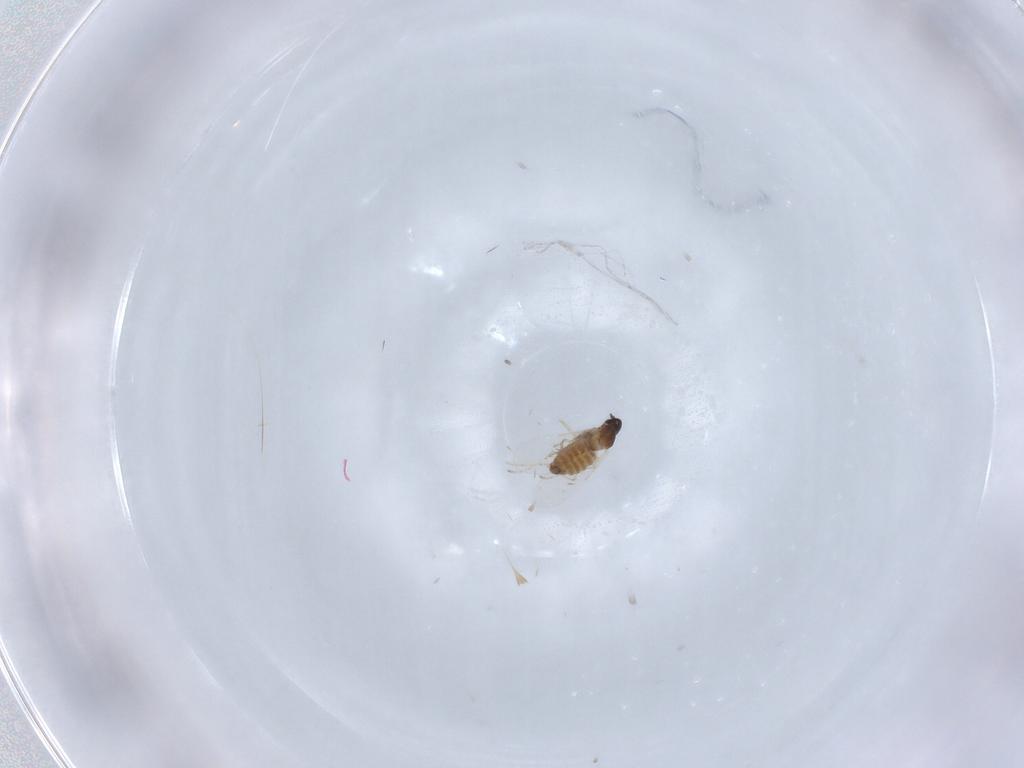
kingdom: Animalia
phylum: Arthropoda
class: Insecta
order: Diptera
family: Cecidomyiidae
